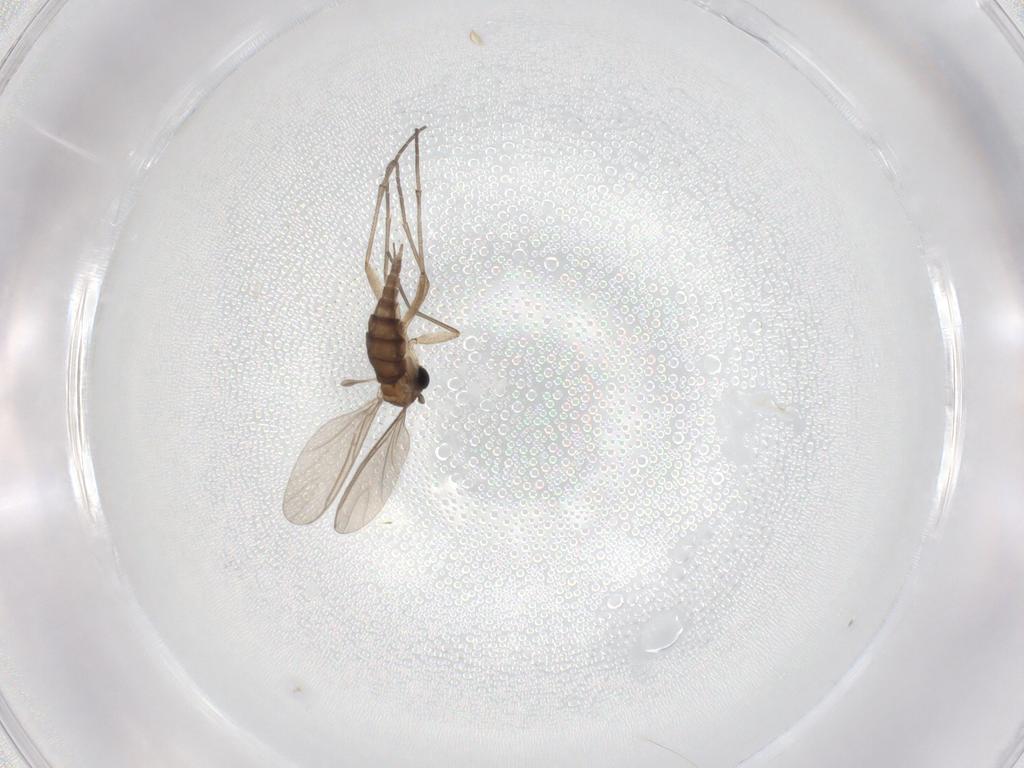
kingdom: Animalia
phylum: Arthropoda
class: Insecta
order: Diptera
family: Sciaridae
